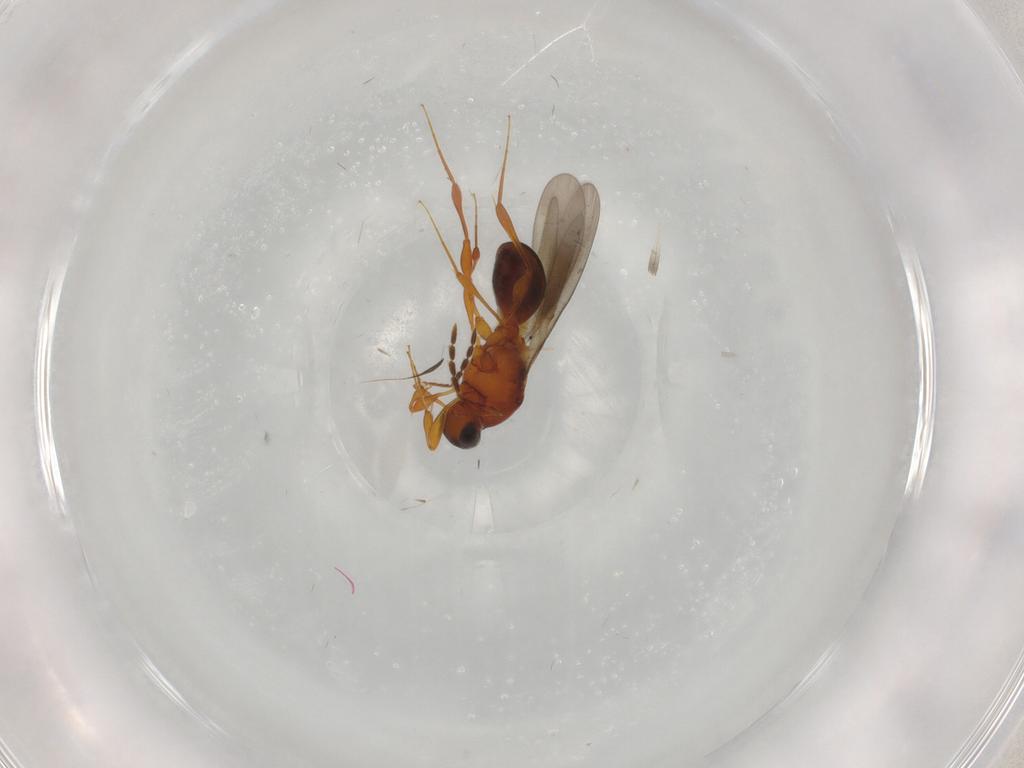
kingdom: Animalia
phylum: Arthropoda
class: Insecta
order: Hymenoptera
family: Platygastridae
